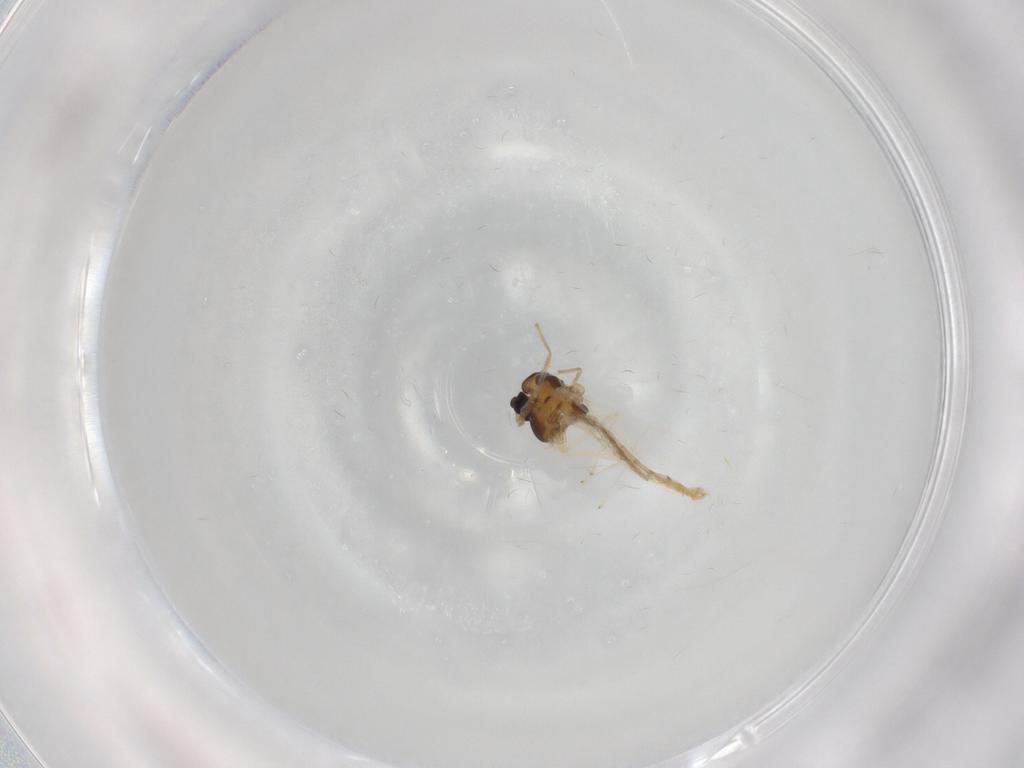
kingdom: Animalia
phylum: Arthropoda
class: Insecta
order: Diptera
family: Chironomidae
